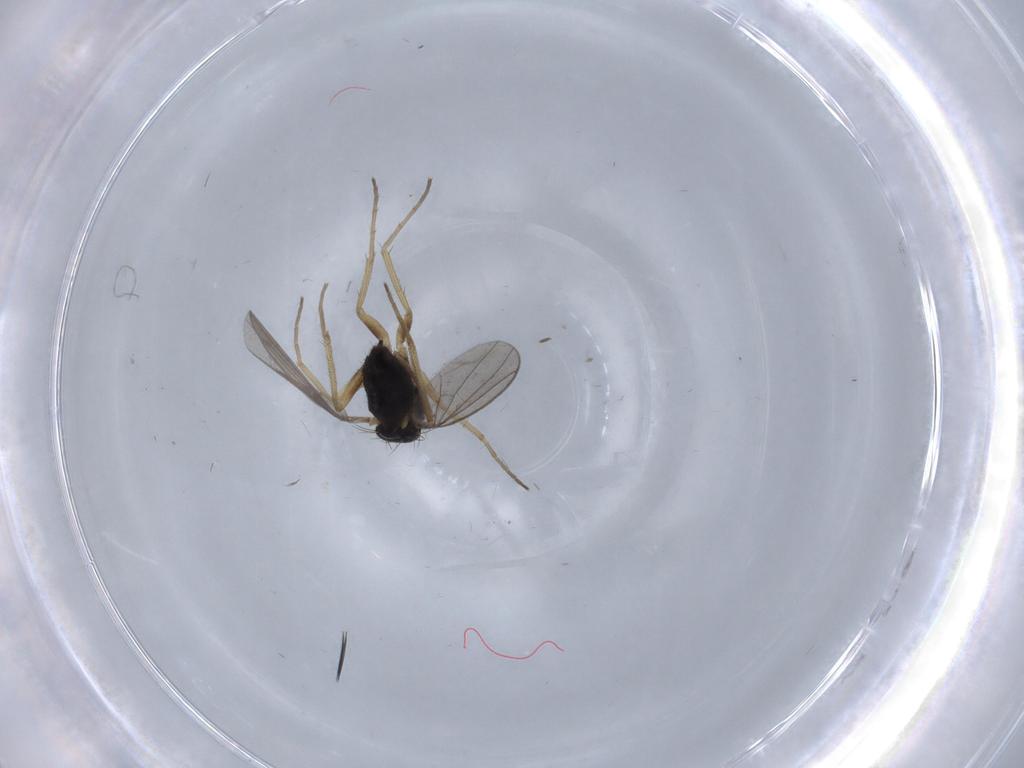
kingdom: Animalia
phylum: Arthropoda
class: Insecta
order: Diptera
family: Dolichopodidae
